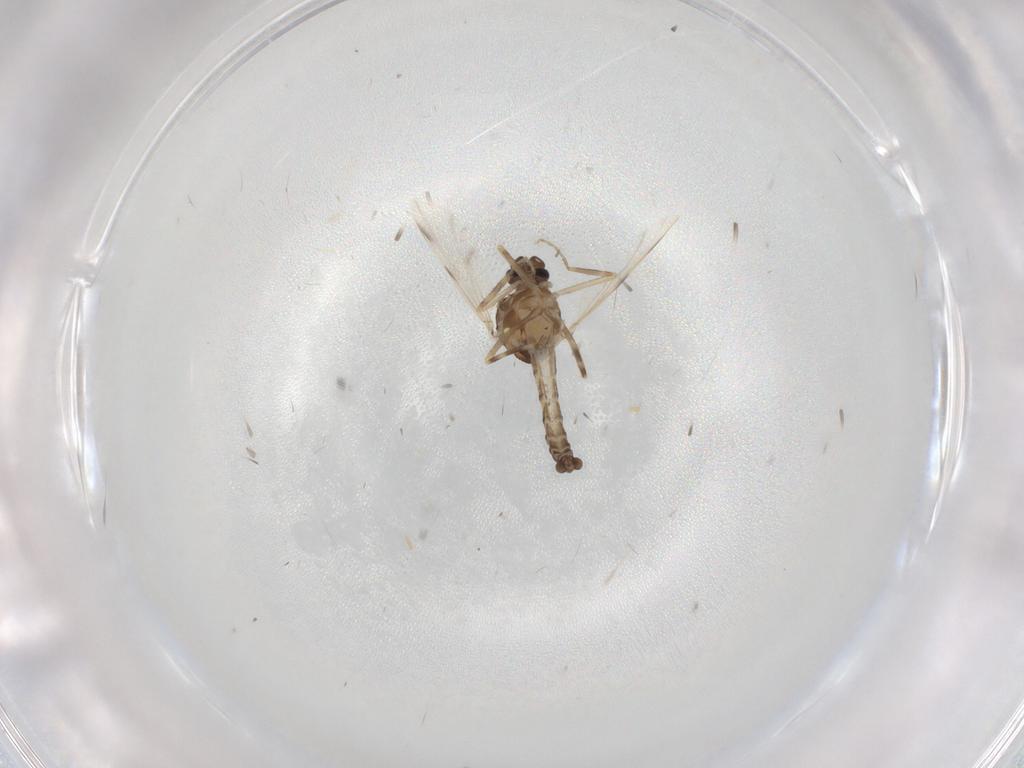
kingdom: Animalia
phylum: Arthropoda
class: Insecta
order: Diptera
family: Ceratopogonidae
